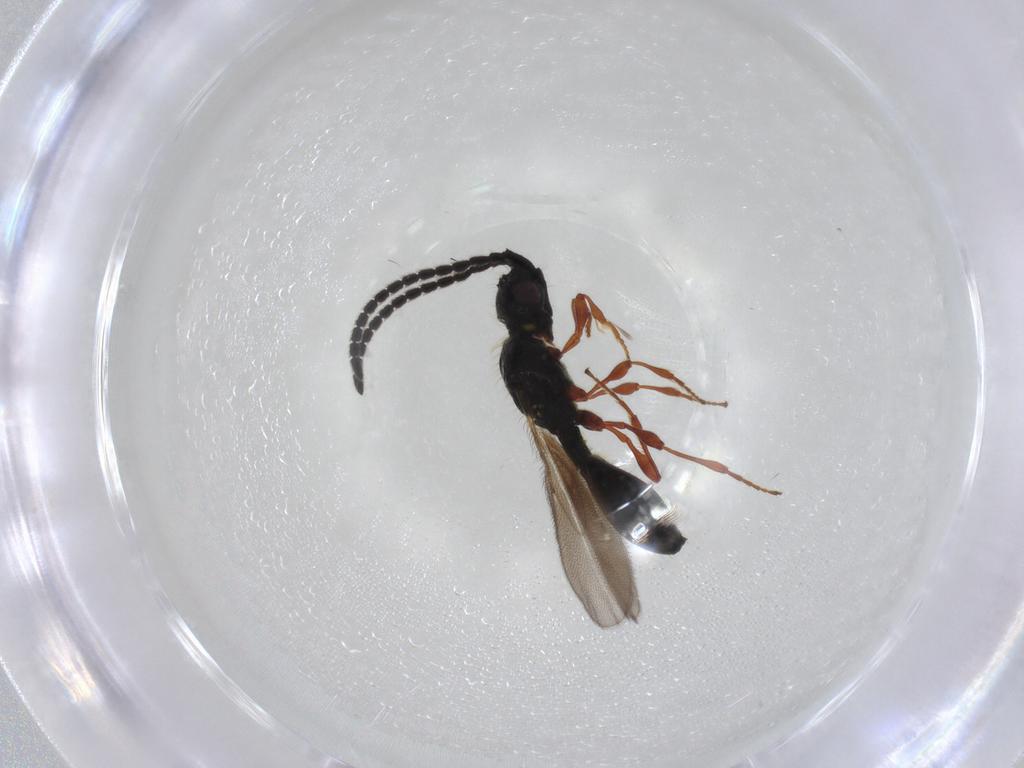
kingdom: Animalia
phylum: Arthropoda
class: Insecta
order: Hymenoptera
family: Diapriidae
